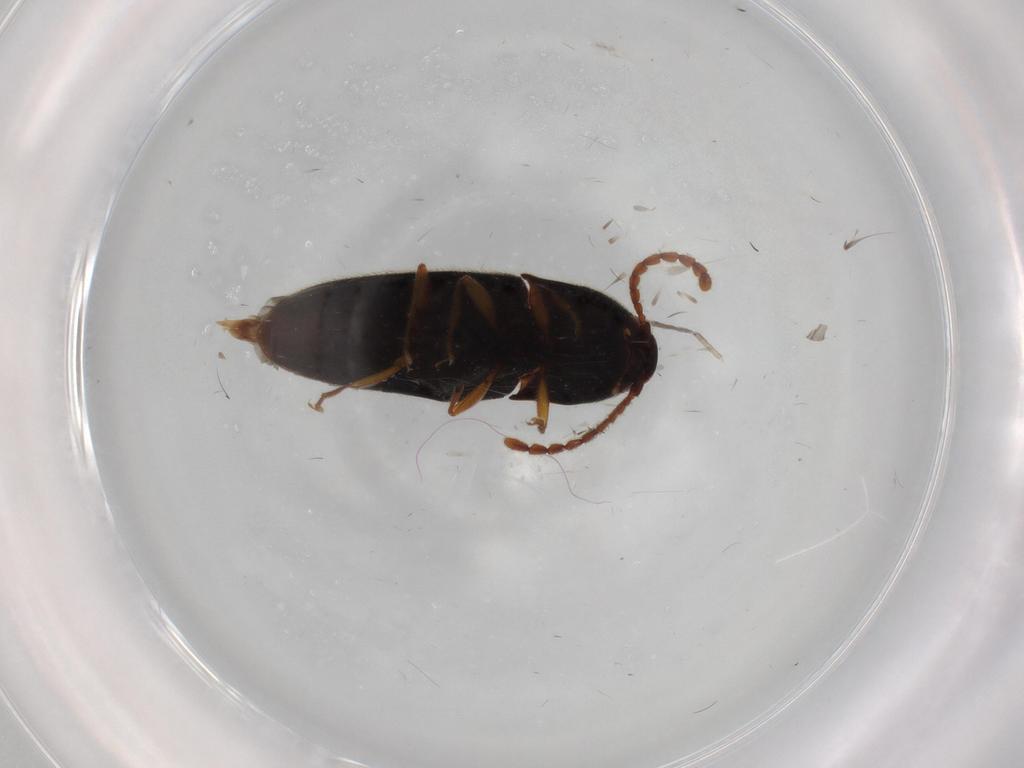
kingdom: Animalia
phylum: Arthropoda
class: Insecta
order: Coleoptera
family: Elateridae
